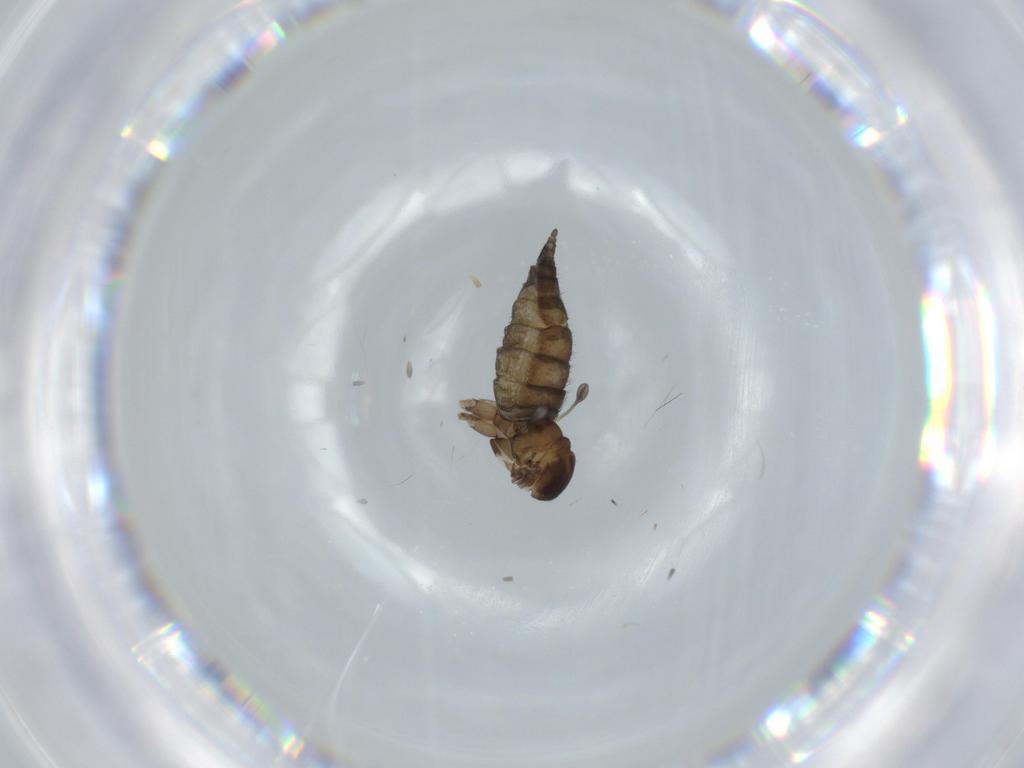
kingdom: Animalia
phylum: Arthropoda
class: Insecta
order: Diptera
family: Sciaridae
